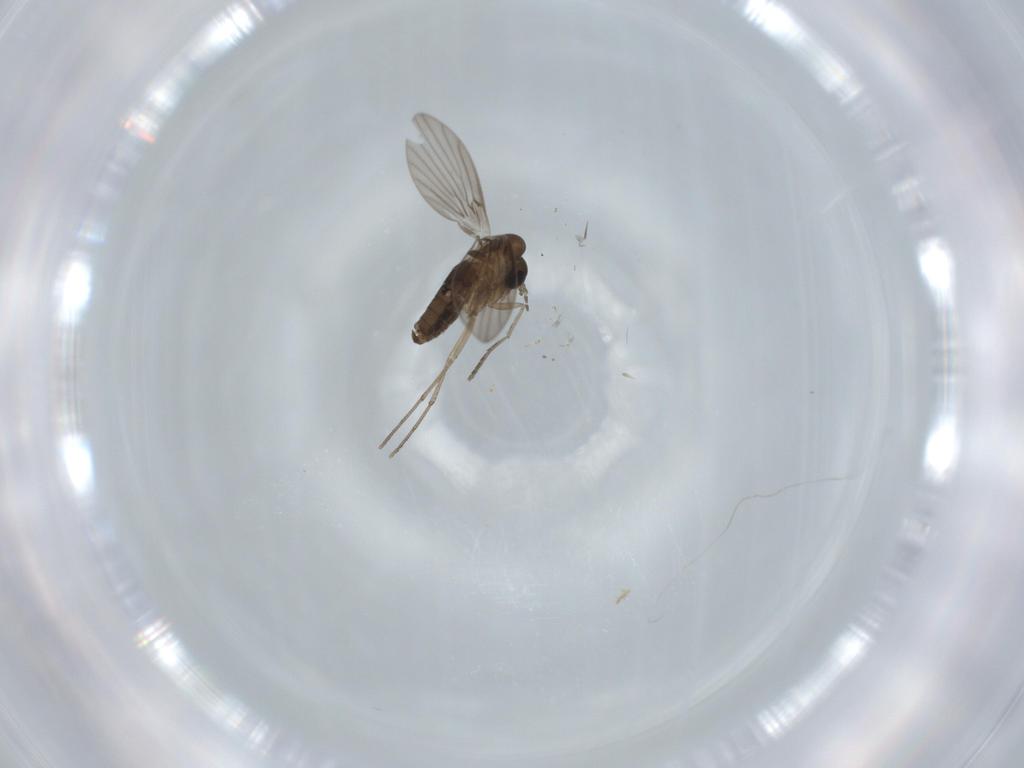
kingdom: Animalia
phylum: Arthropoda
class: Insecta
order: Diptera
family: Psychodidae
